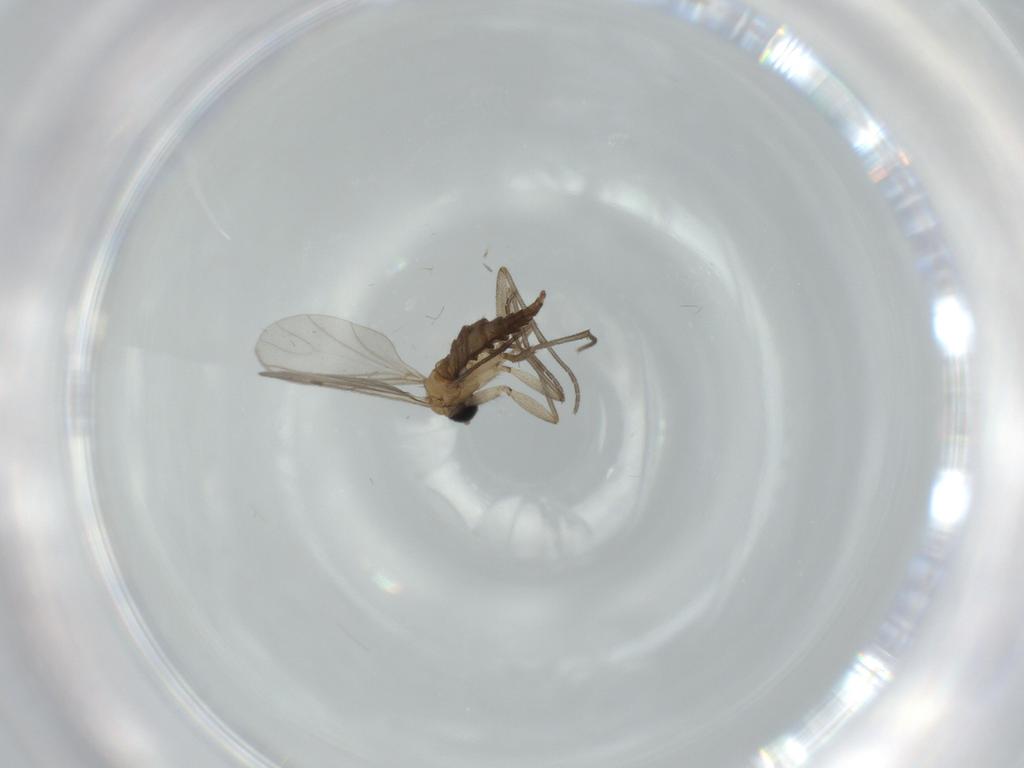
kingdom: Animalia
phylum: Arthropoda
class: Insecta
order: Diptera
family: Sciaridae
